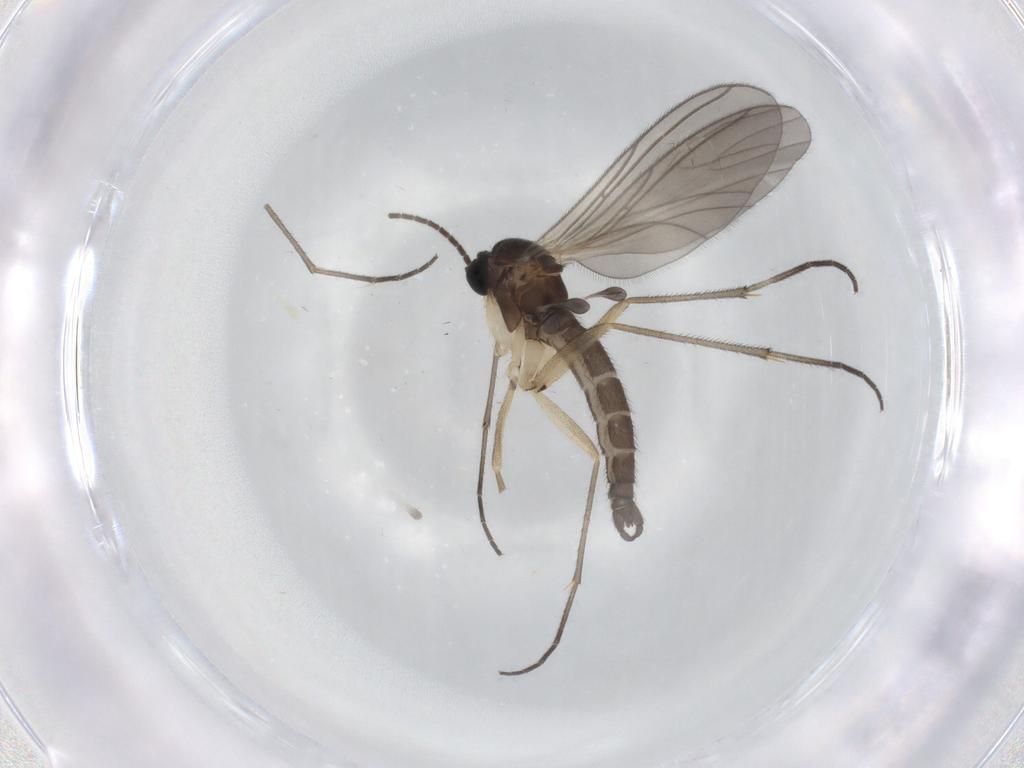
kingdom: Animalia
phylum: Arthropoda
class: Insecta
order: Diptera
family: Sciaridae
